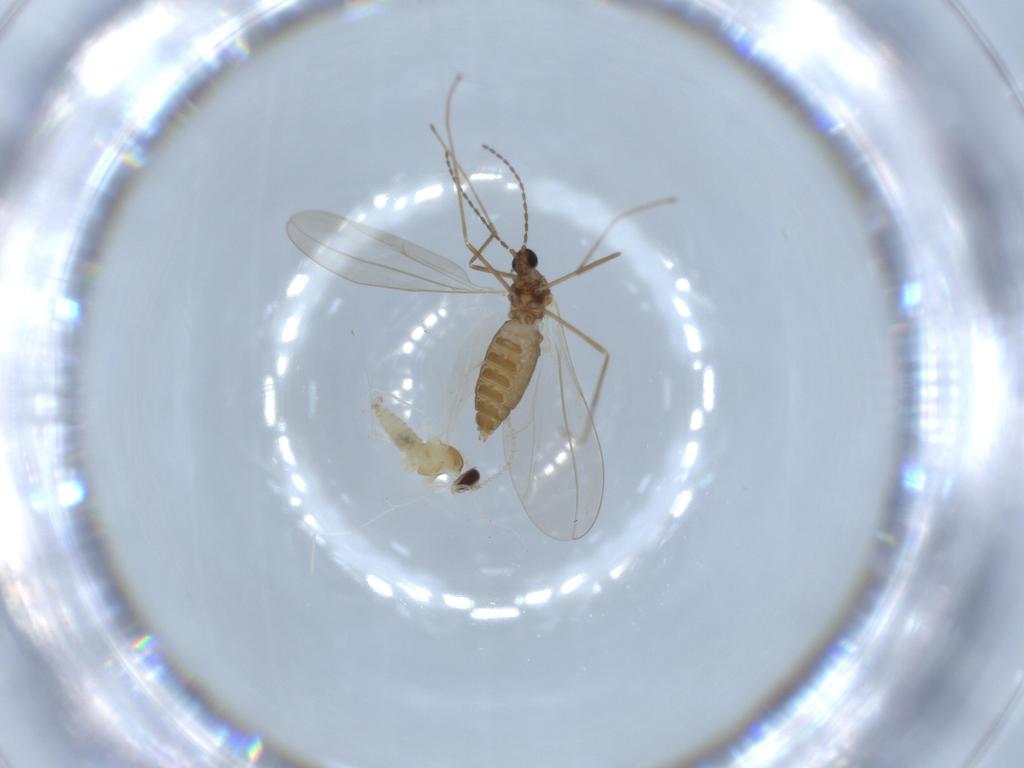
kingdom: Animalia
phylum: Arthropoda
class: Insecta
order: Diptera
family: Cecidomyiidae
